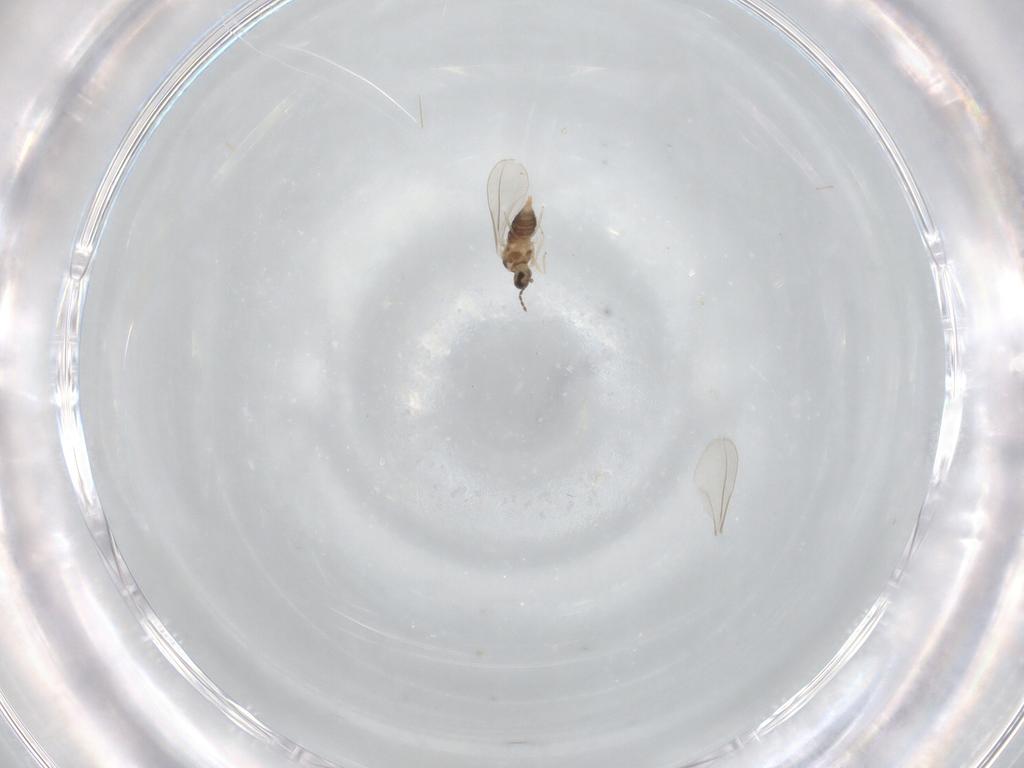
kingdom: Animalia
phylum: Arthropoda
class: Insecta
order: Diptera
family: Cecidomyiidae
